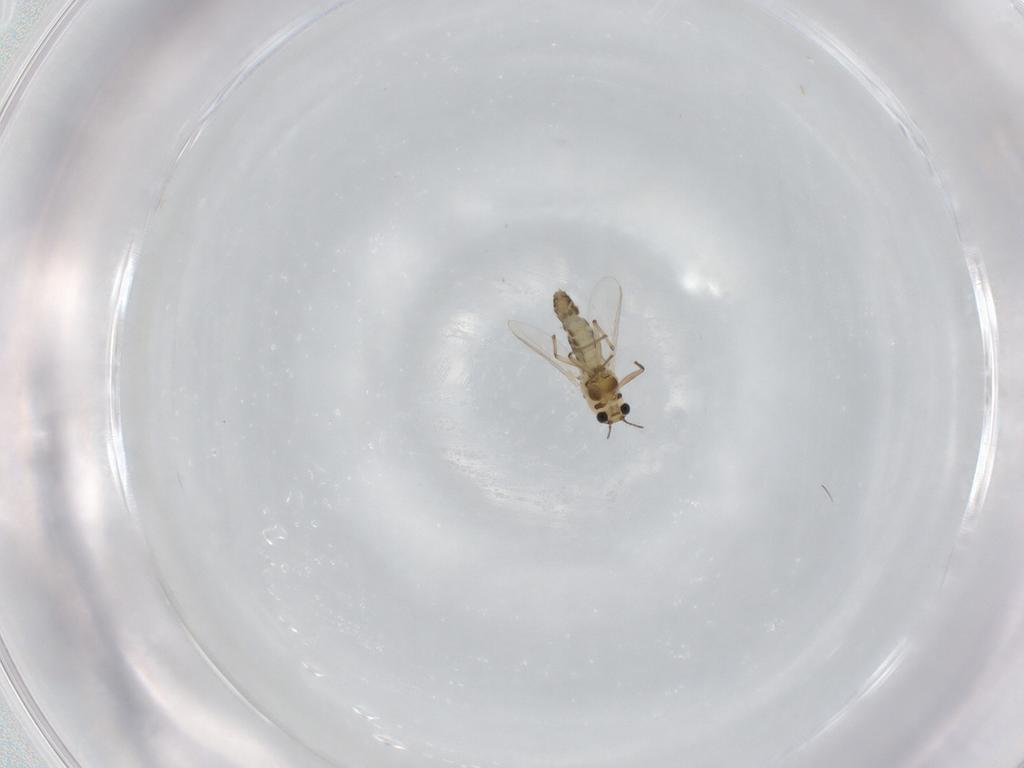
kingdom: Animalia
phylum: Arthropoda
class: Insecta
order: Diptera
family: Chironomidae
